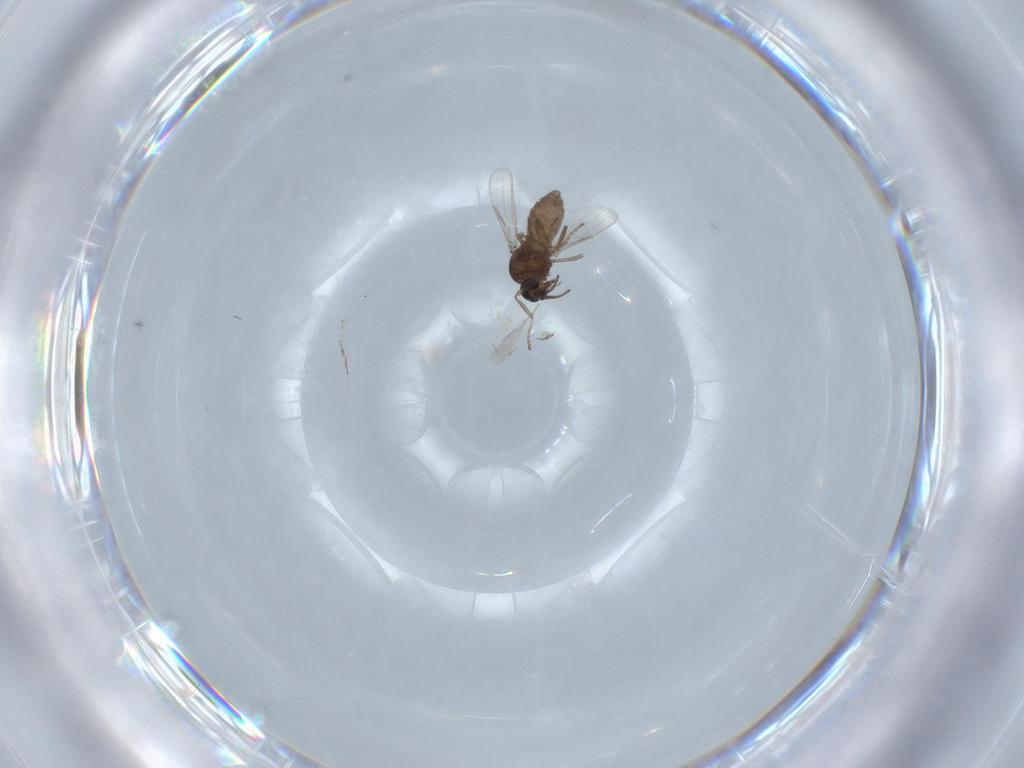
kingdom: Animalia
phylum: Arthropoda
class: Insecta
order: Diptera
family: Ceratopogonidae
